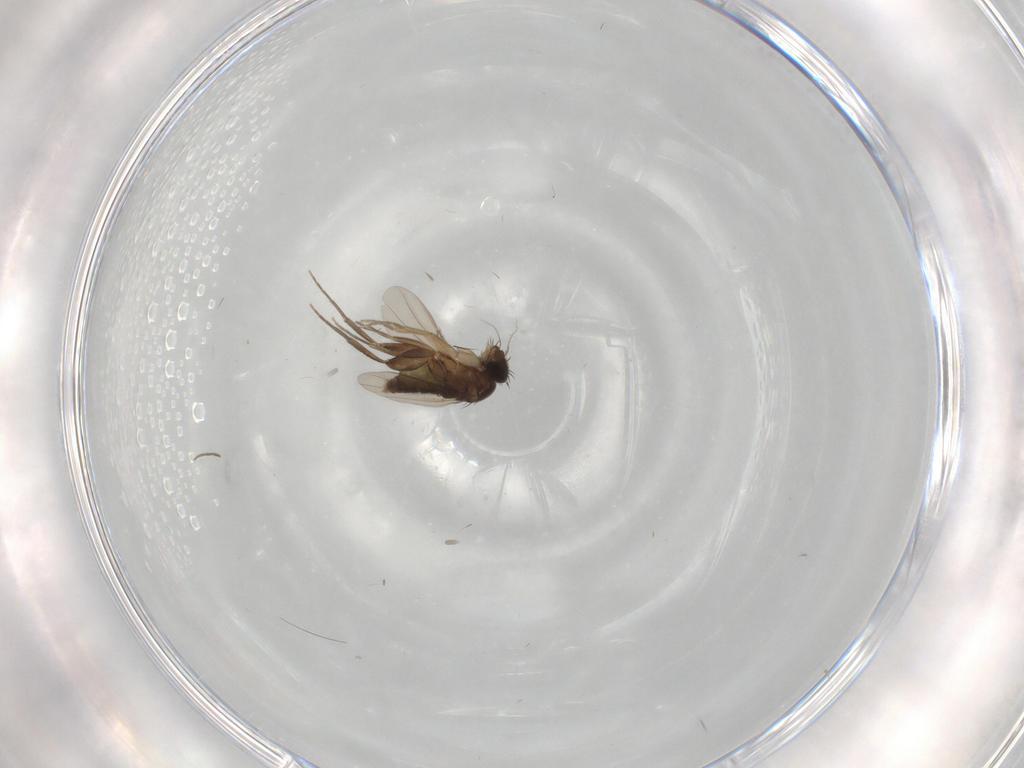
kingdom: Animalia
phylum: Arthropoda
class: Insecta
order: Diptera
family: Phoridae
